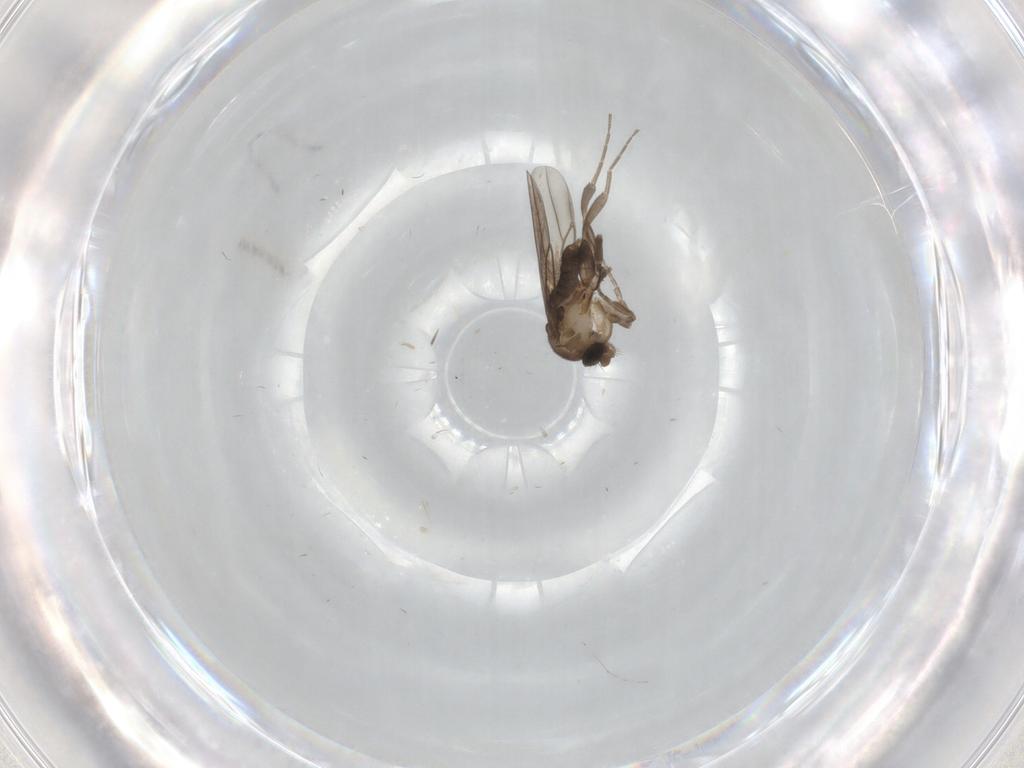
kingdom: Animalia
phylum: Arthropoda
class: Insecta
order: Diptera
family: Phoridae
